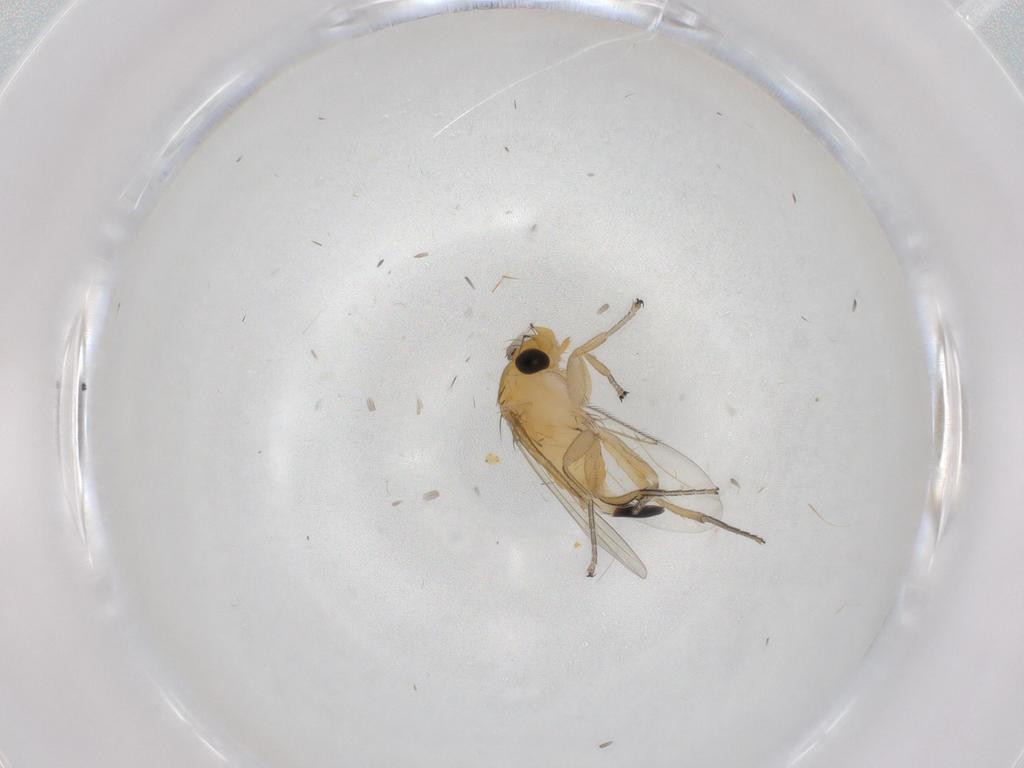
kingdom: Animalia
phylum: Arthropoda
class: Insecta
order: Diptera
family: Phoridae
